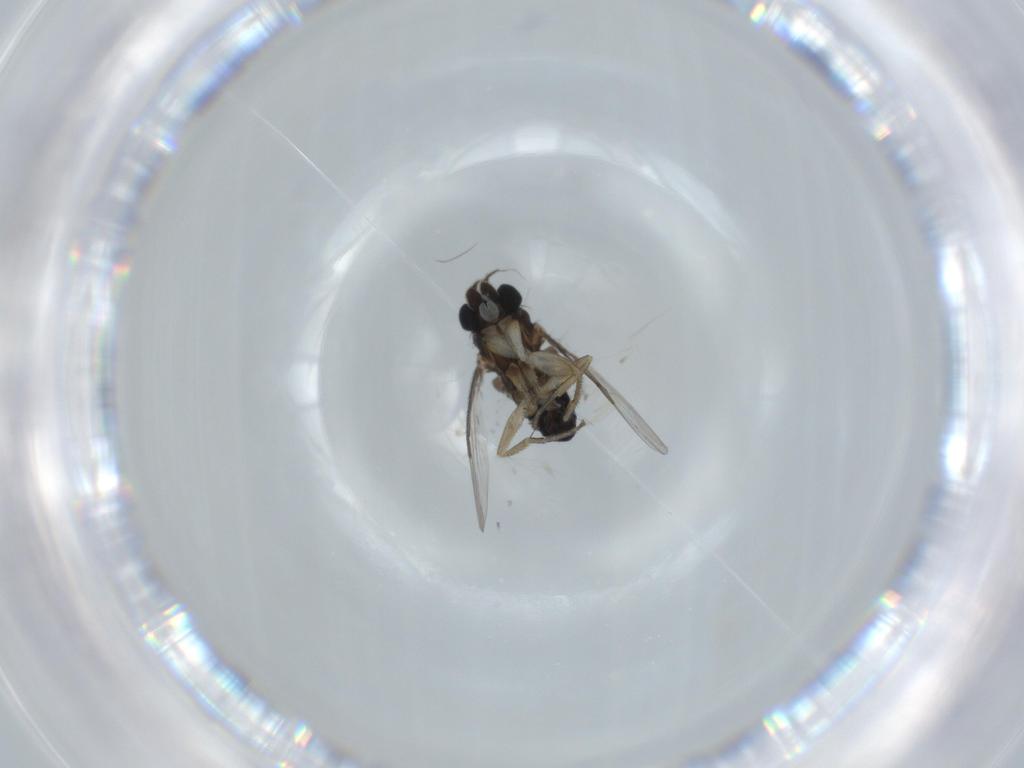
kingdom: Animalia
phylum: Arthropoda
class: Insecta
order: Diptera
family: Phoridae
